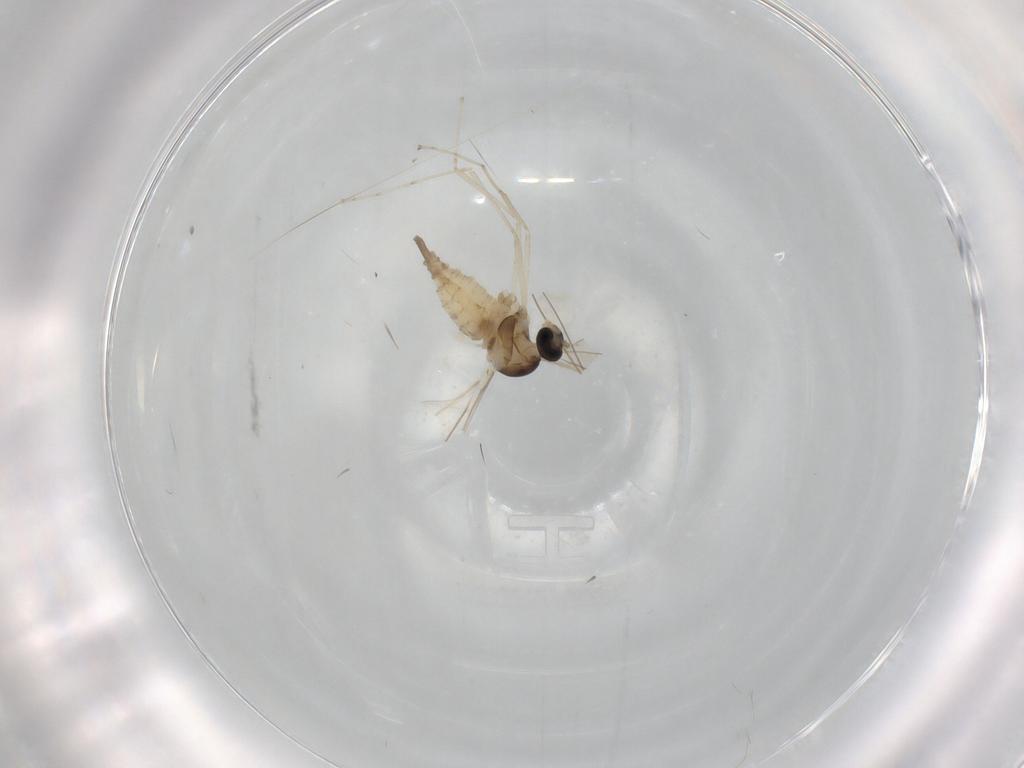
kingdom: Animalia
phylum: Arthropoda
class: Insecta
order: Diptera
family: Cecidomyiidae
